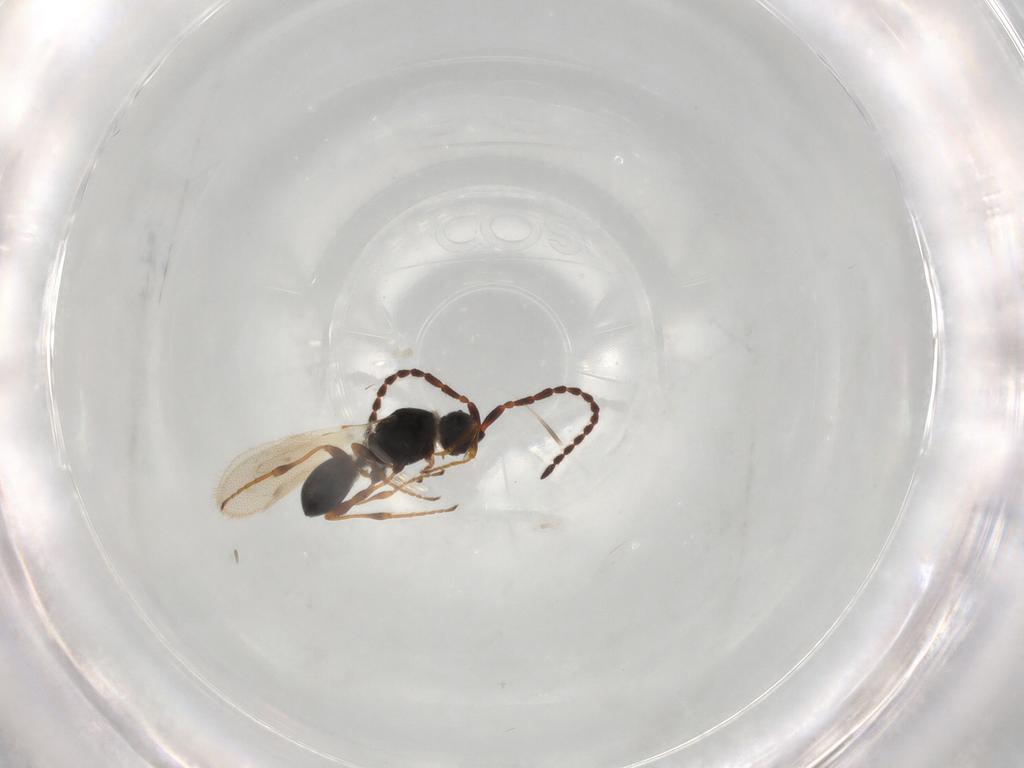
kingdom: Animalia
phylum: Arthropoda
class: Insecta
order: Hymenoptera
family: Diapriidae
